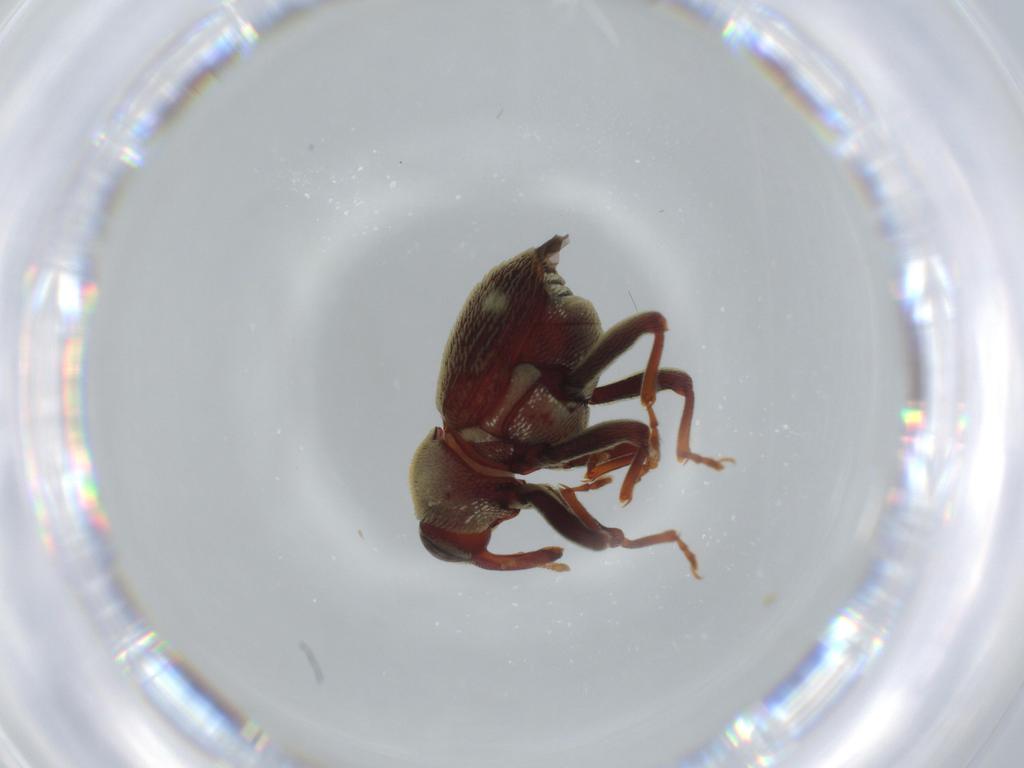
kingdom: Animalia
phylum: Arthropoda
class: Insecta
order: Coleoptera
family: Curculionidae
